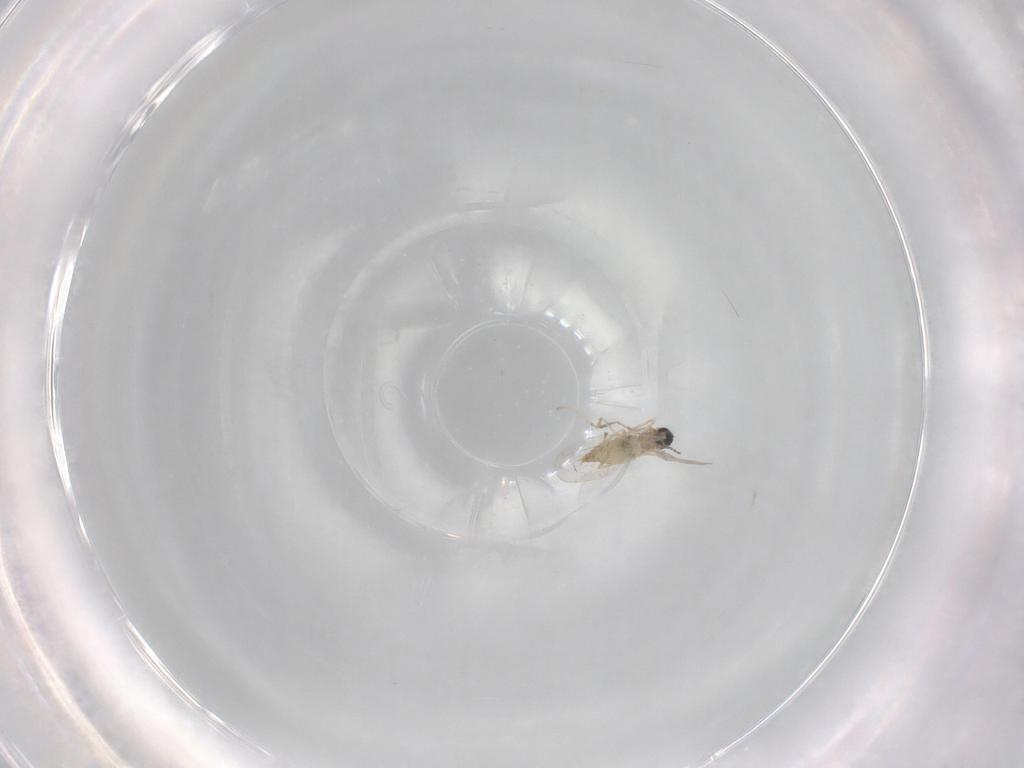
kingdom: Animalia
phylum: Arthropoda
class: Insecta
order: Diptera
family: Cecidomyiidae
